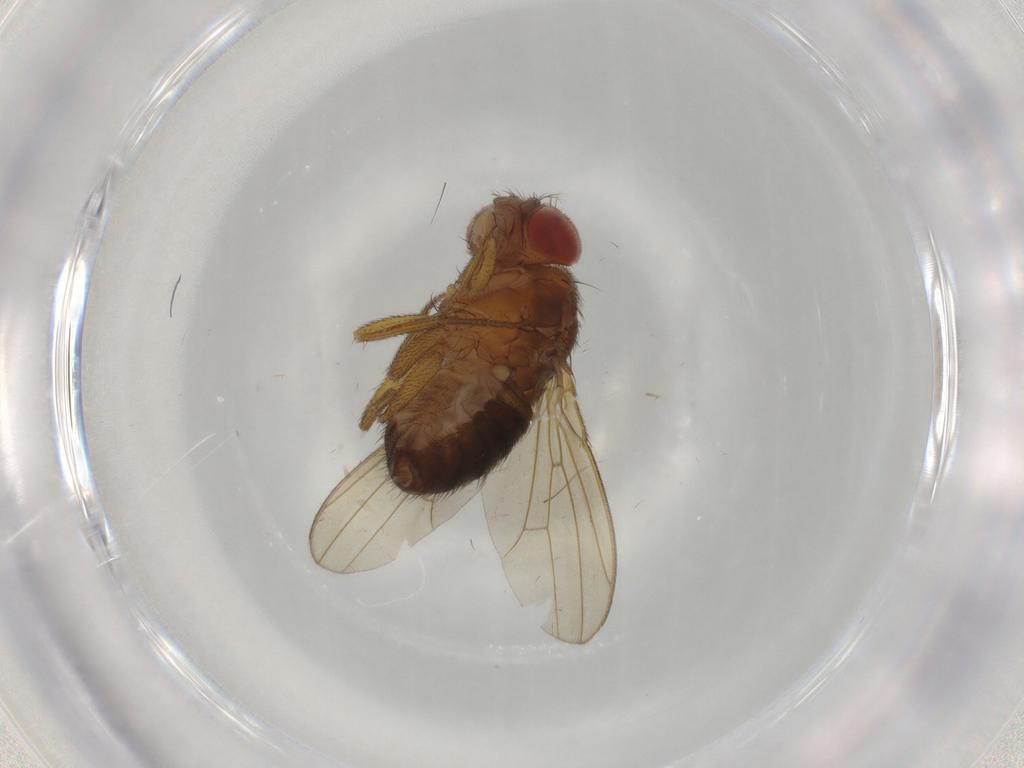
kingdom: Animalia
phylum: Arthropoda
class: Insecta
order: Diptera
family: Drosophilidae
